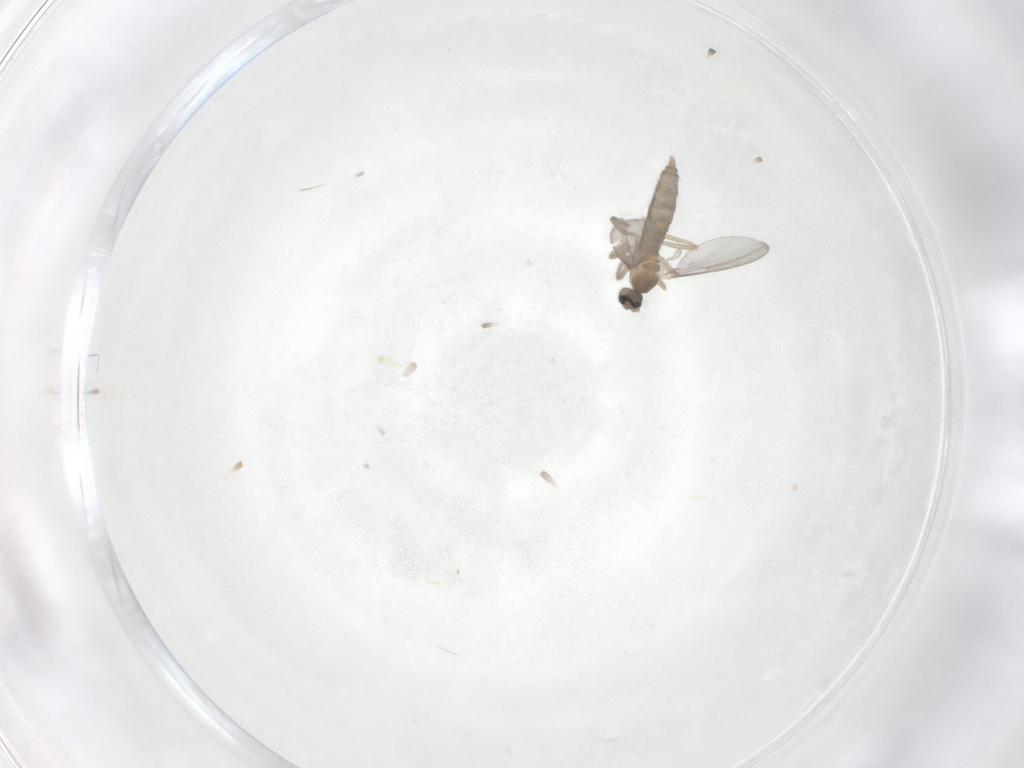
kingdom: Animalia
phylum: Arthropoda
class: Insecta
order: Diptera
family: Cecidomyiidae
